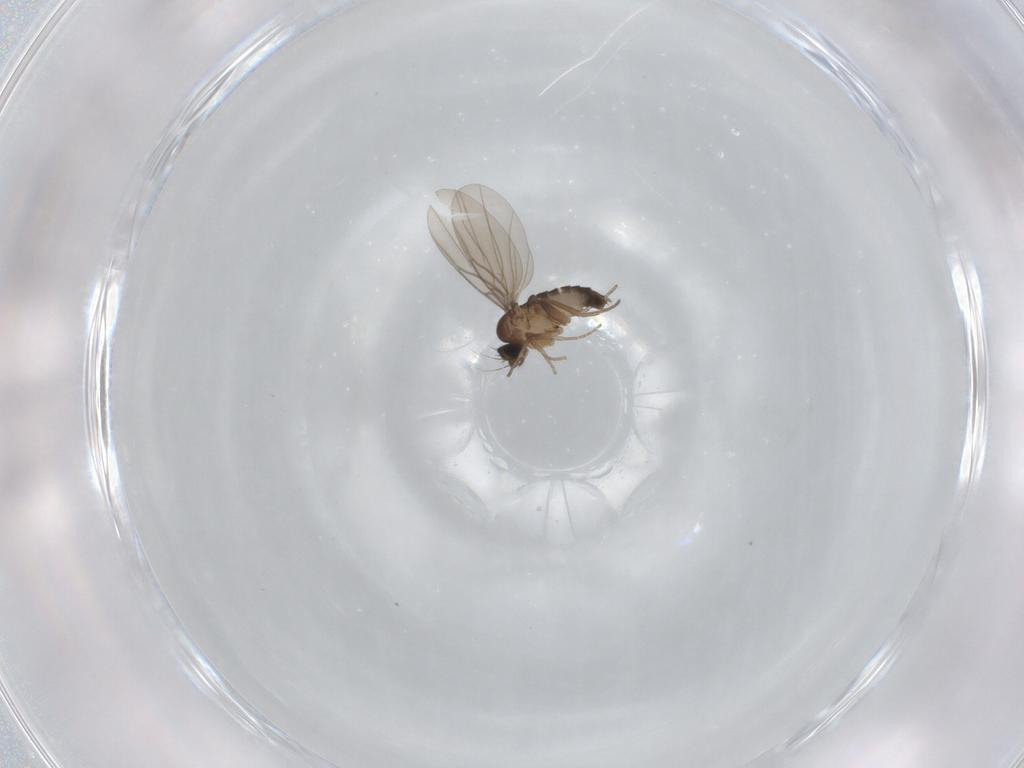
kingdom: Animalia
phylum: Arthropoda
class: Insecta
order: Diptera
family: Phoridae
